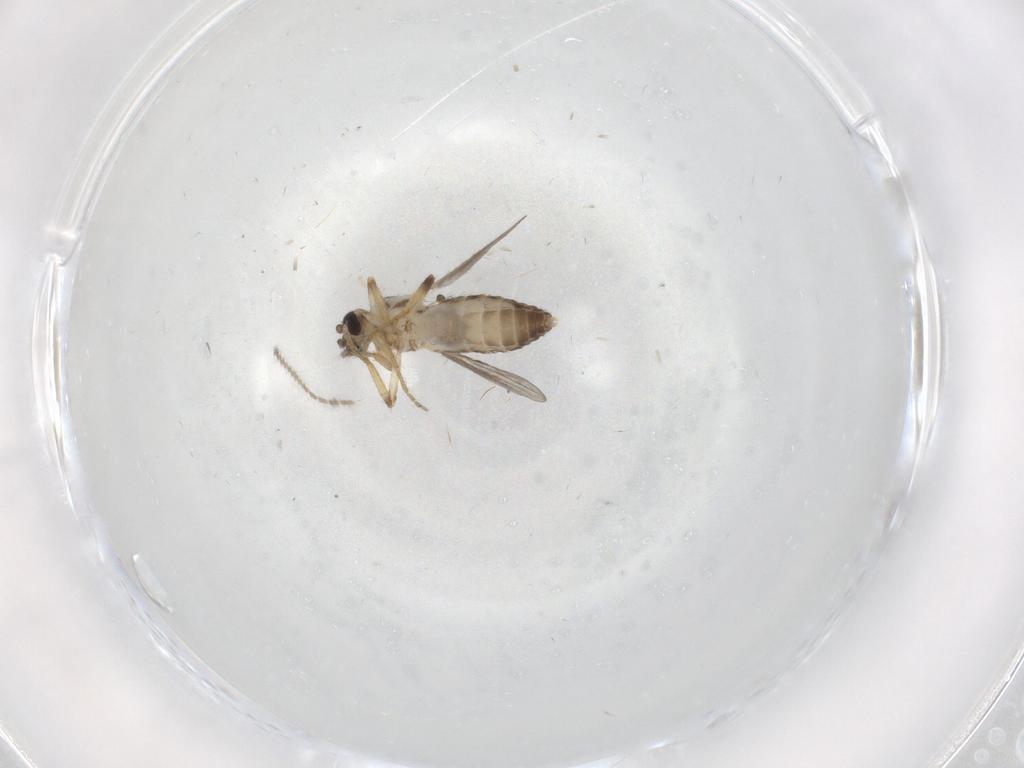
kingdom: Animalia
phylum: Arthropoda
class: Insecta
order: Diptera
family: Ceratopogonidae
